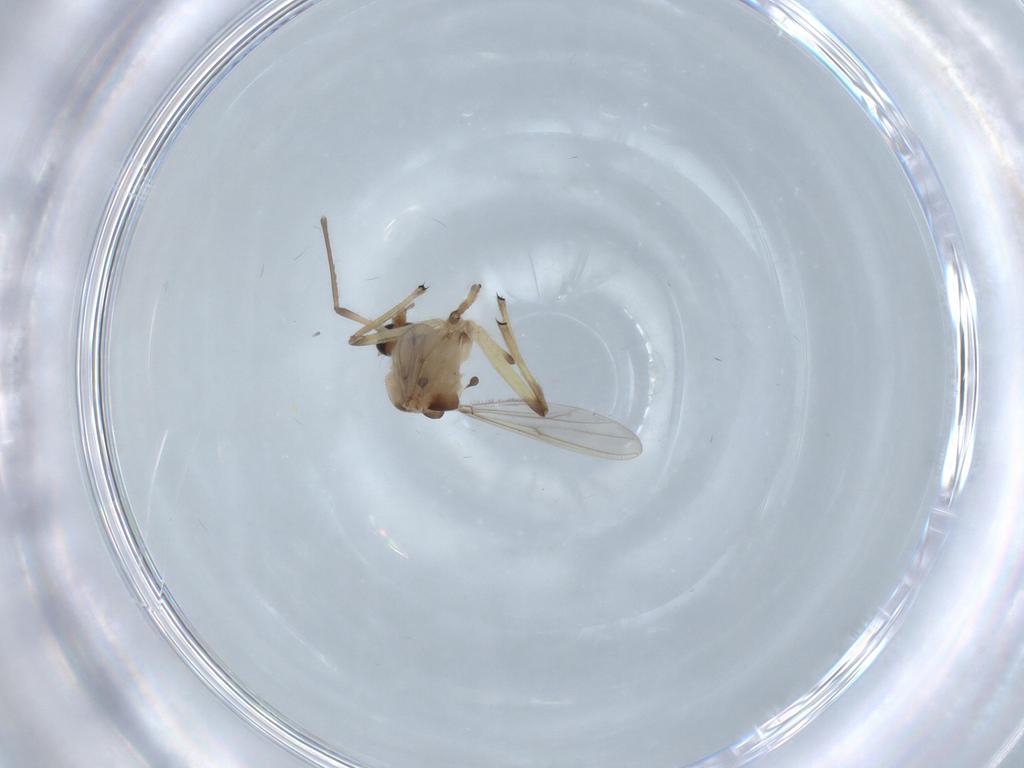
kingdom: Animalia
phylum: Arthropoda
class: Insecta
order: Diptera
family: Chironomidae
